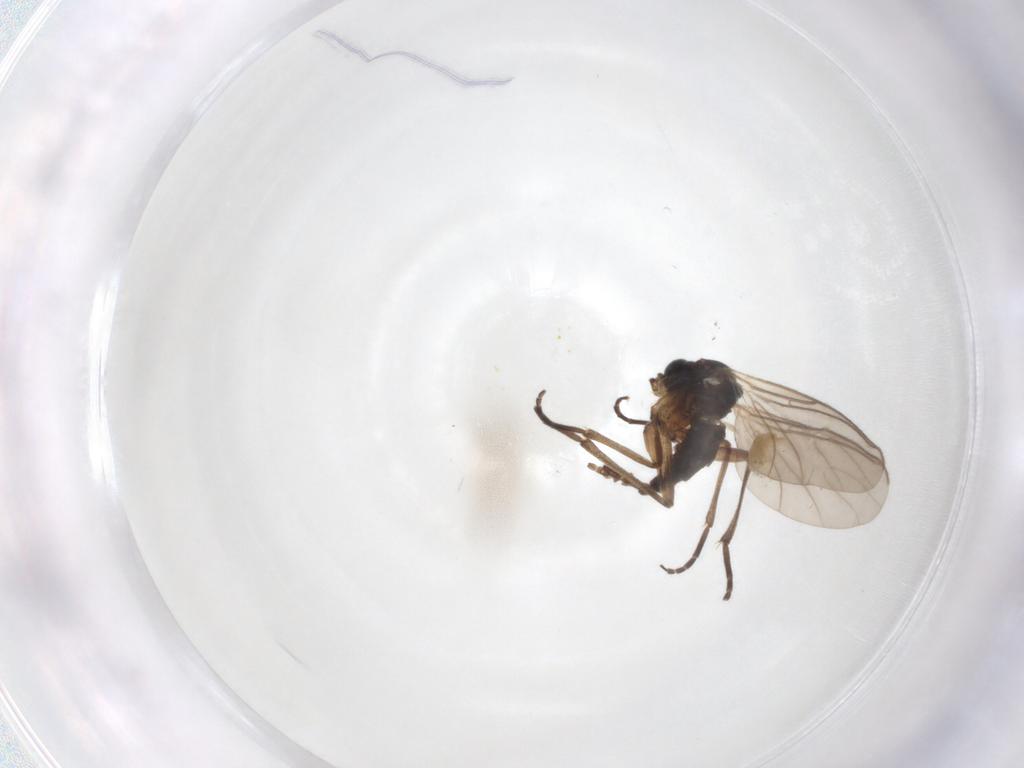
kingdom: Animalia
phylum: Arthropoda
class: Insecta
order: Diptera
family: Sciaridae
